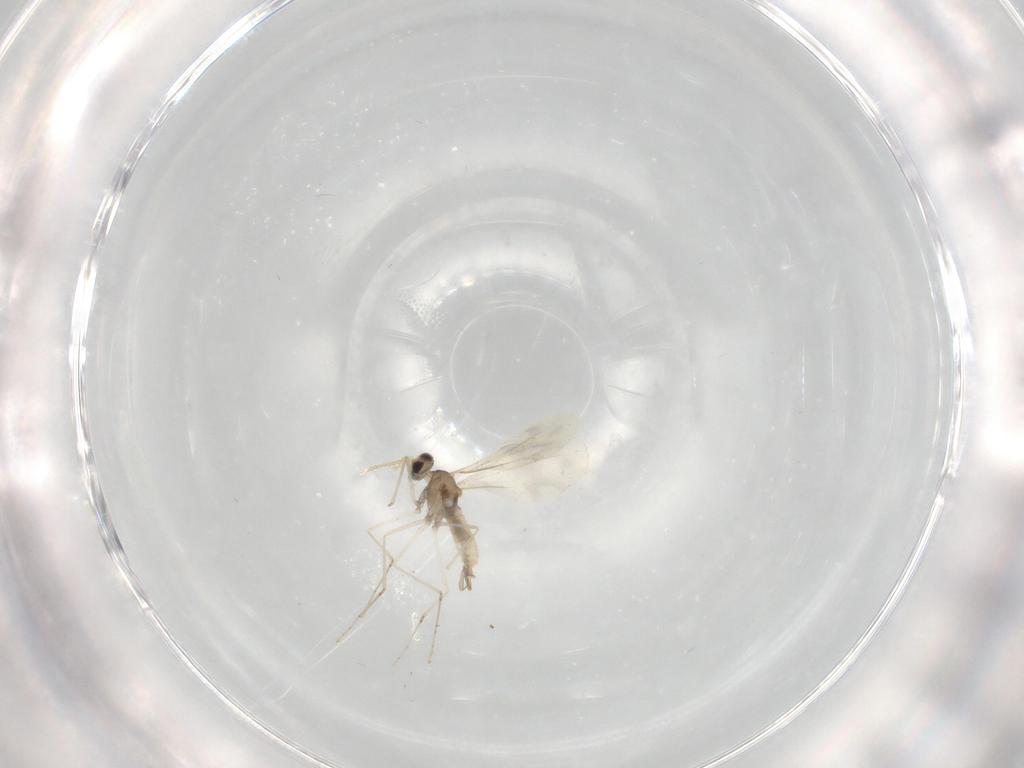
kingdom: Animalia
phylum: Arthropoda
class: Insecta
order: Diptera
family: Cecidomyiidae
